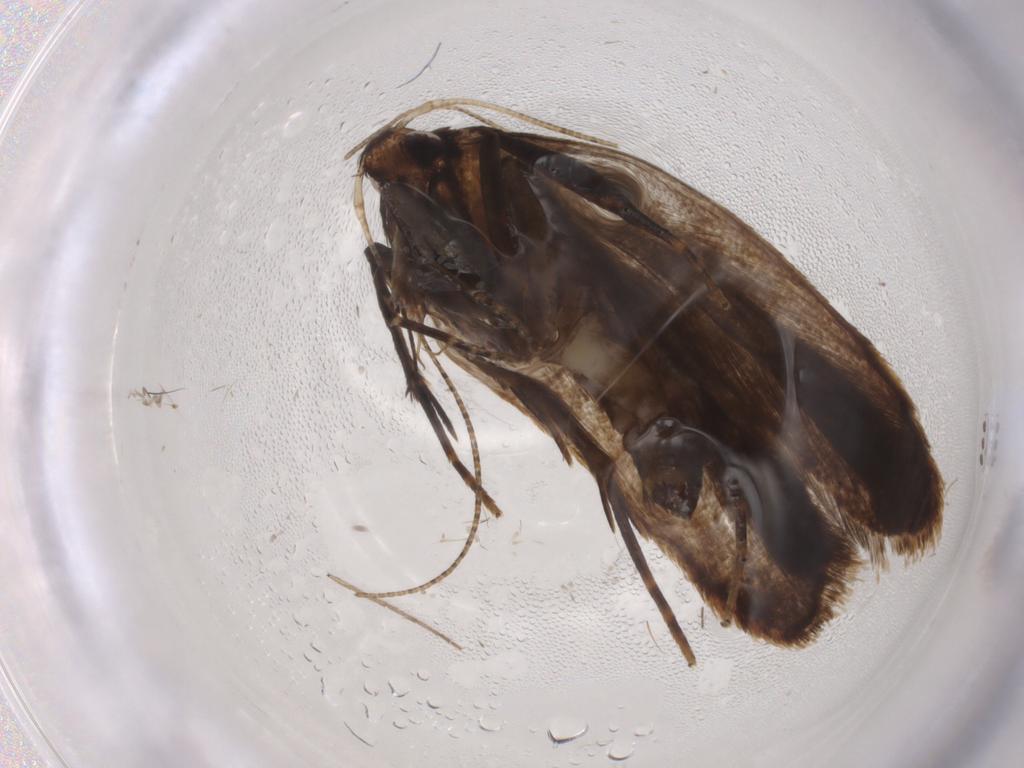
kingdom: Animalia
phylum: Arthropoda
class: Insecta
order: Lepidoptera
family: Gelechiidae
